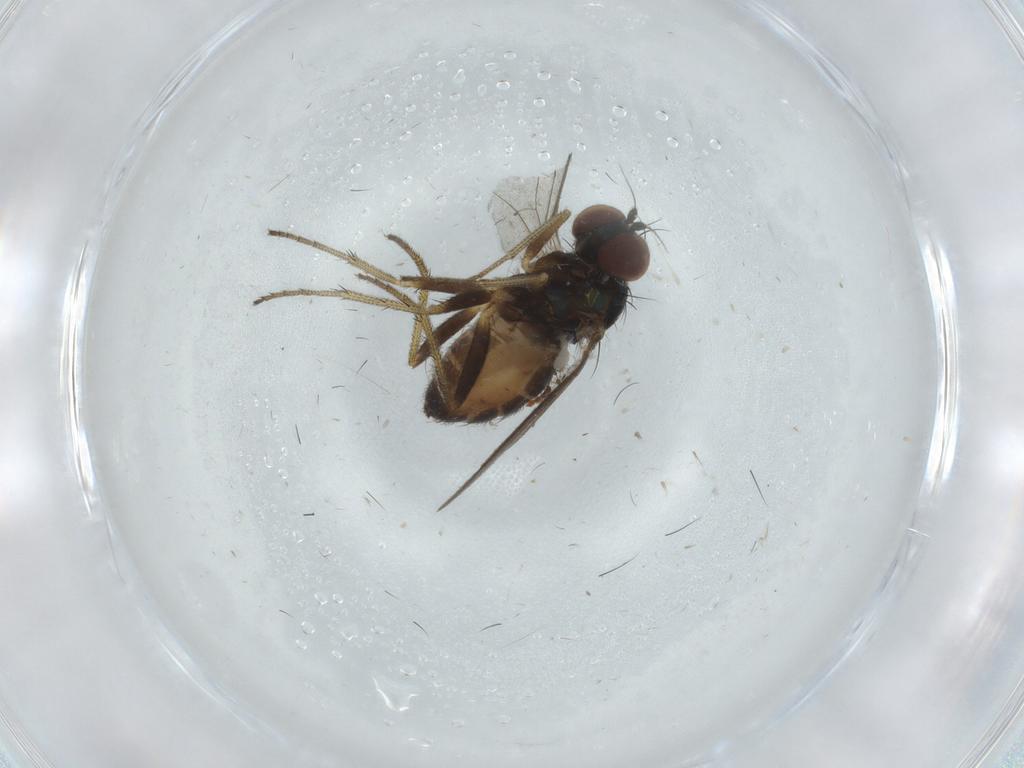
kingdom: Animalia
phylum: Arthropoda
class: Insecta
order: Diptera
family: Dolichopodidae
